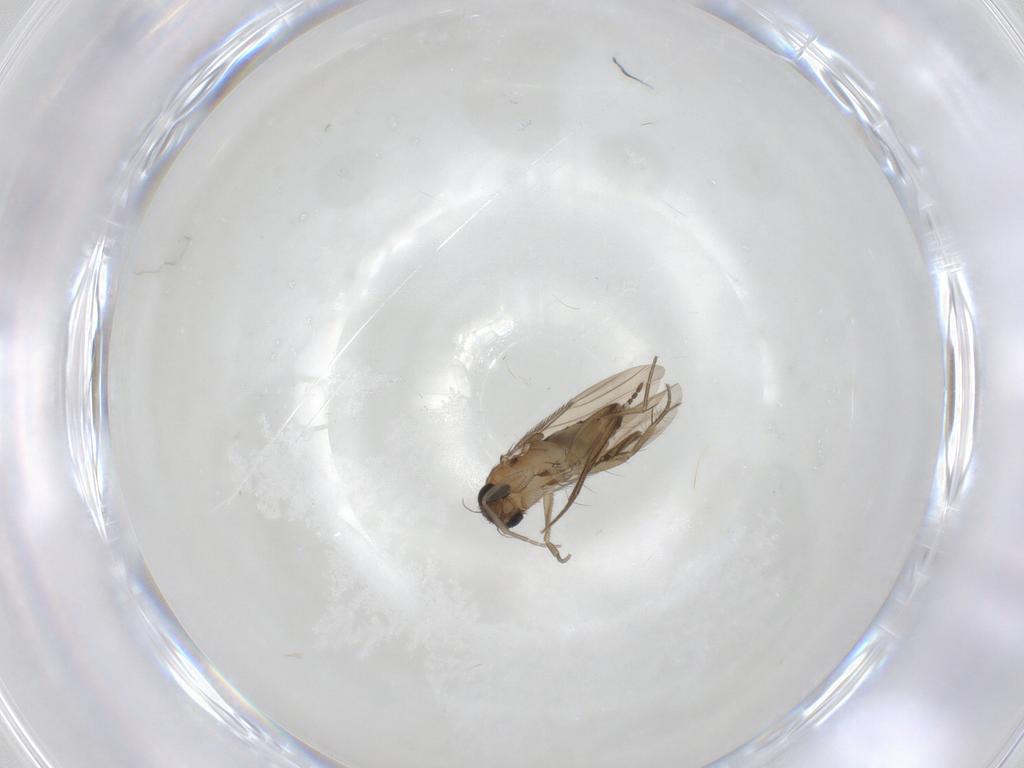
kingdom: Animalia
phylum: Arthropoda
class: Insecta
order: Diptera
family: Phoridae
